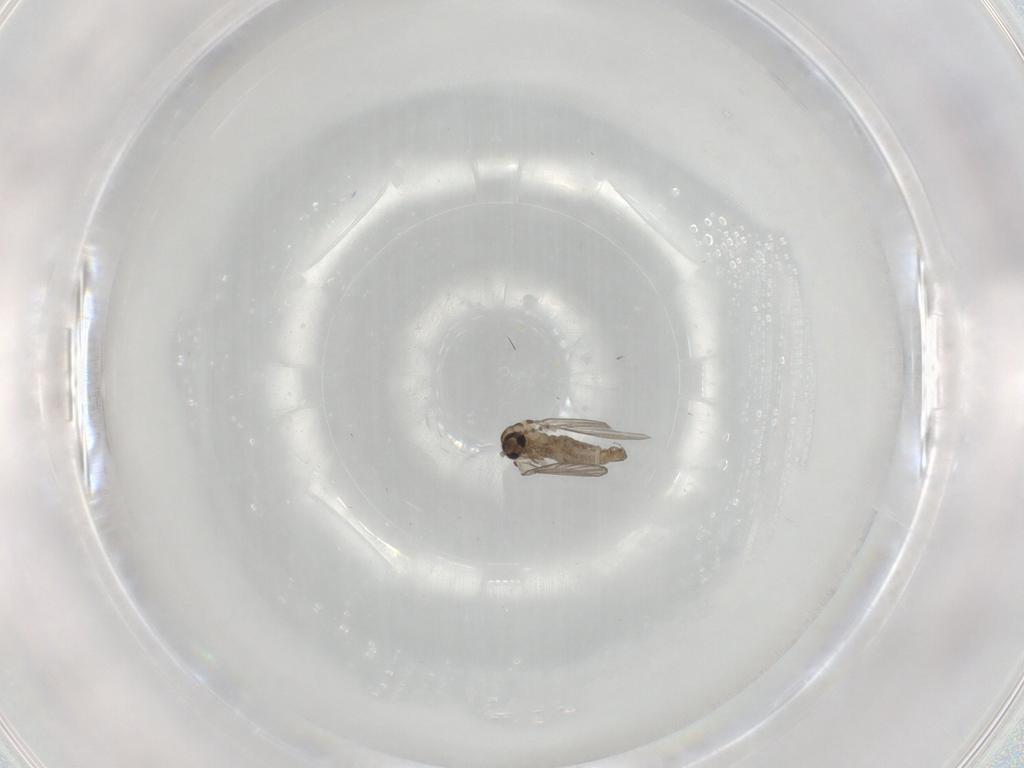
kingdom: Animalia
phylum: Arthropoda
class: Insecta
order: Diptera
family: Psychodidae
